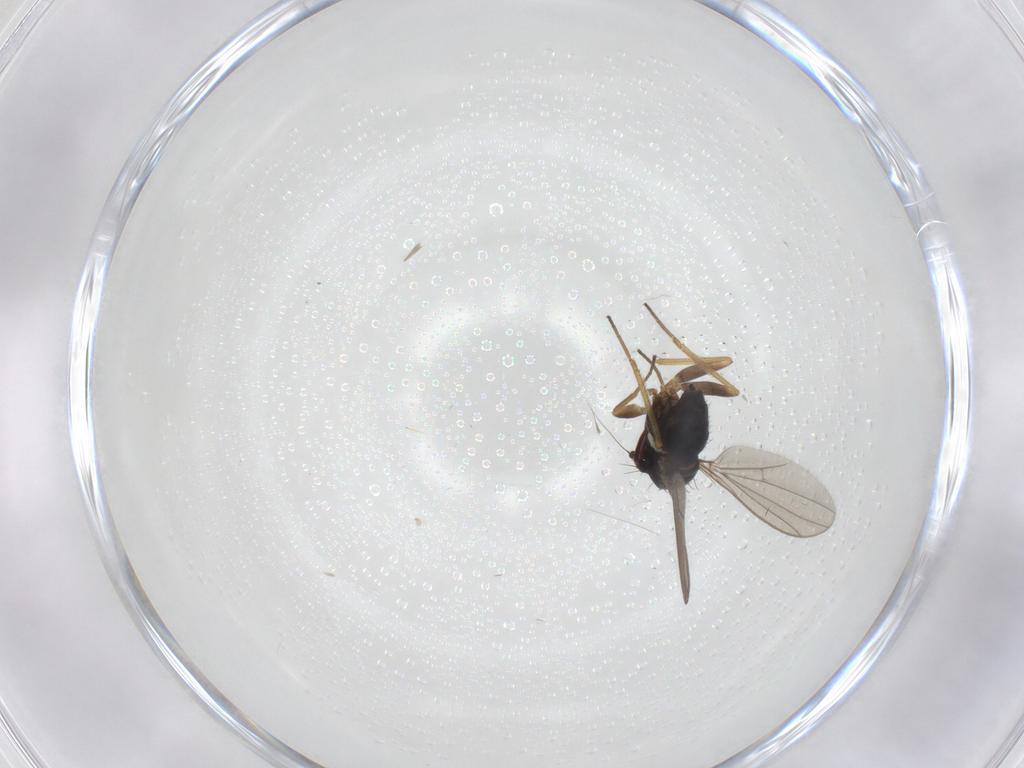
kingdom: Animalia
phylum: Arthropoda
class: Insecta
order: Diptera
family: Dolichopodidae
